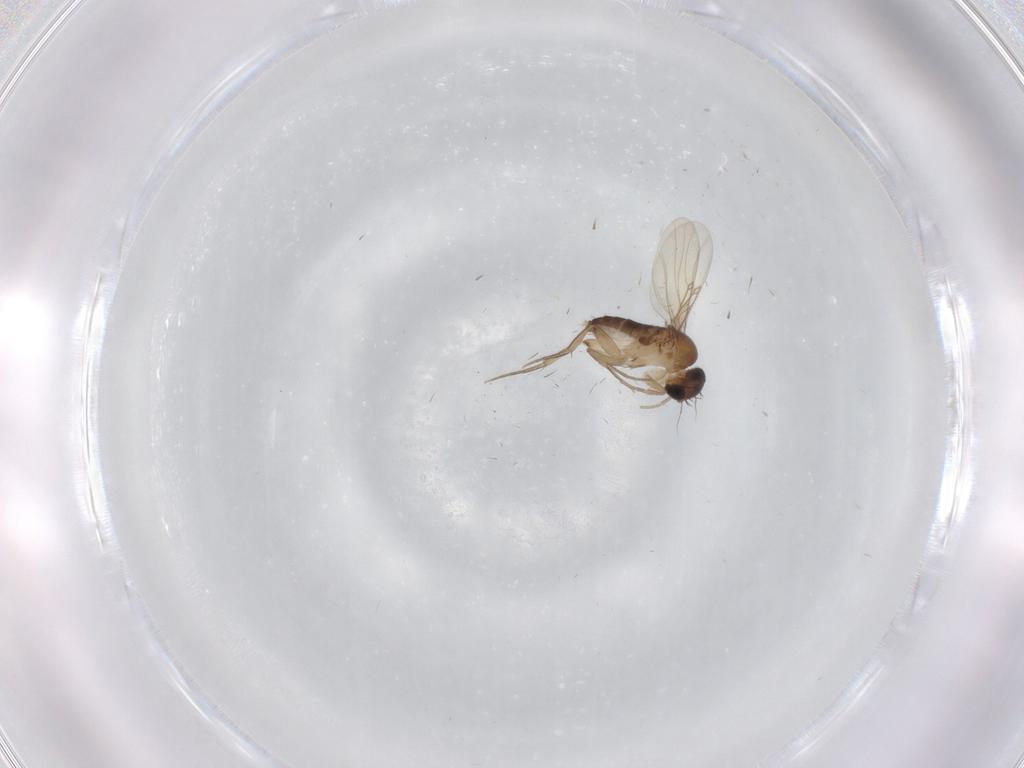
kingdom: Animalia
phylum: Arthropoda
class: Insecta
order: Diptera
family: Phoridae
